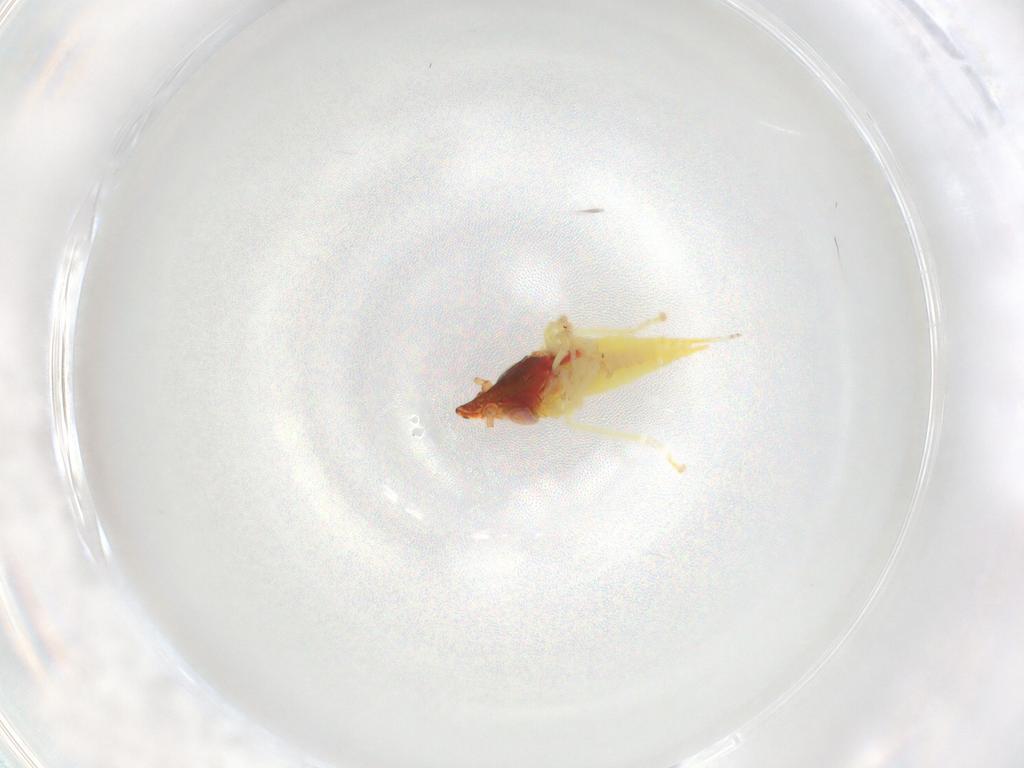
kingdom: Animalia
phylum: Arthropoda
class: Insecta
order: Hemiptera
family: Cicadellidae
